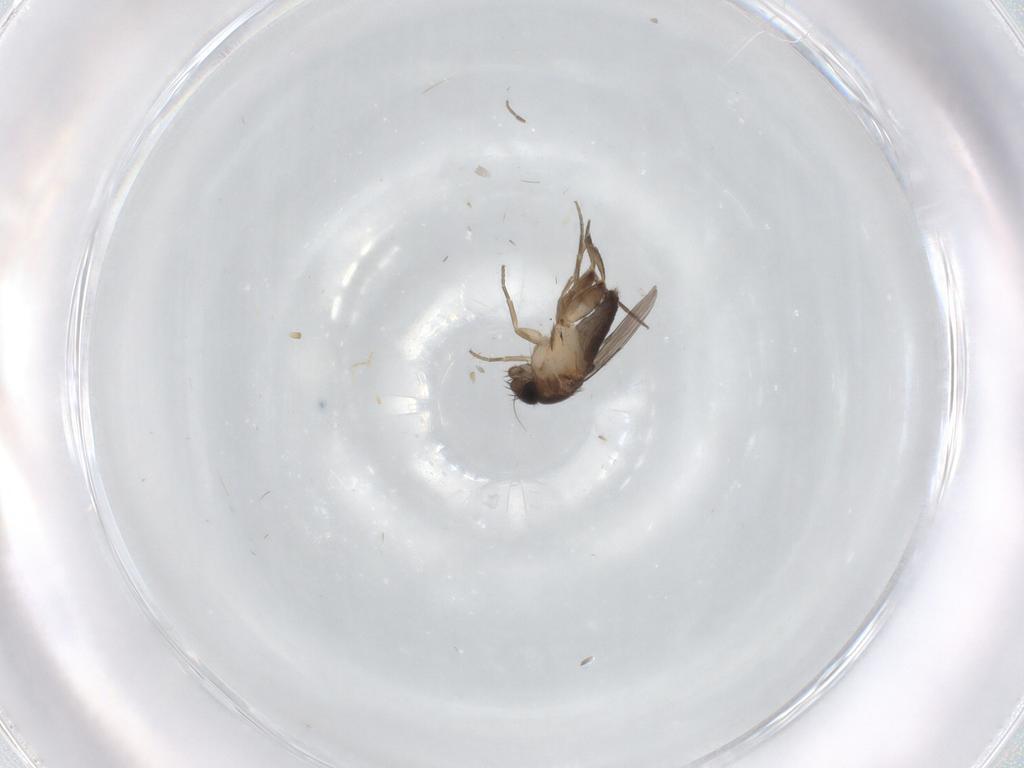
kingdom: Animalia
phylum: Arthropoda
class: Insecta
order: Diptera
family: Phoridae
